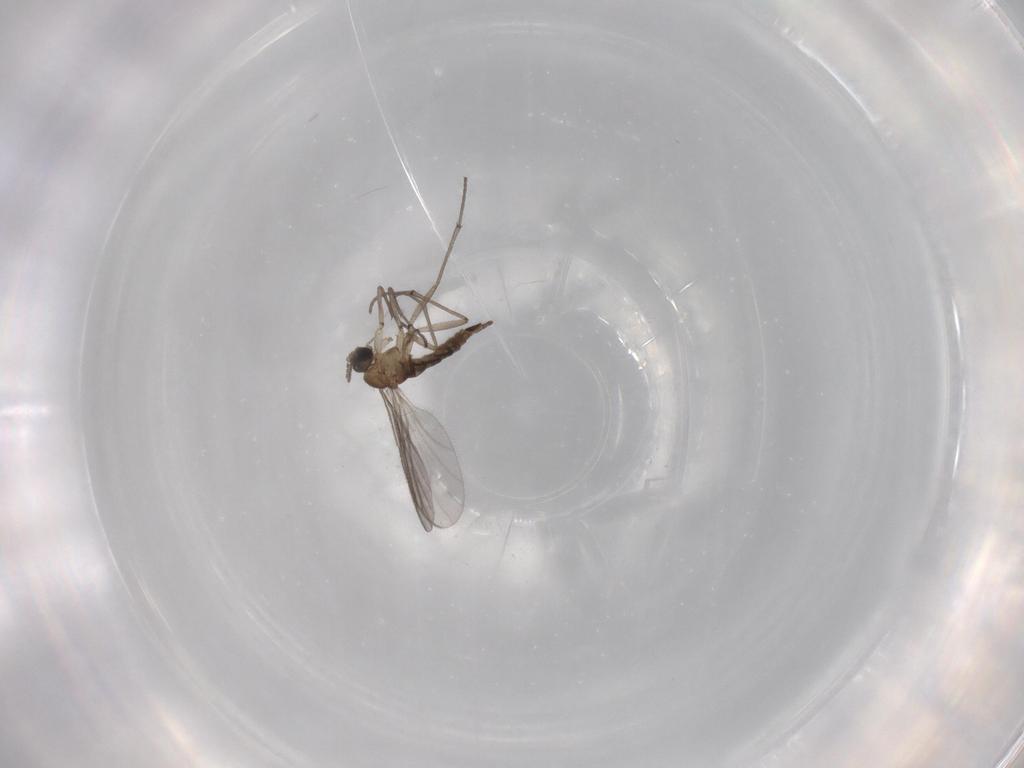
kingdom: Animalia
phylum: Arthropoda
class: Insecta
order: Diptera
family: Sciaridae
